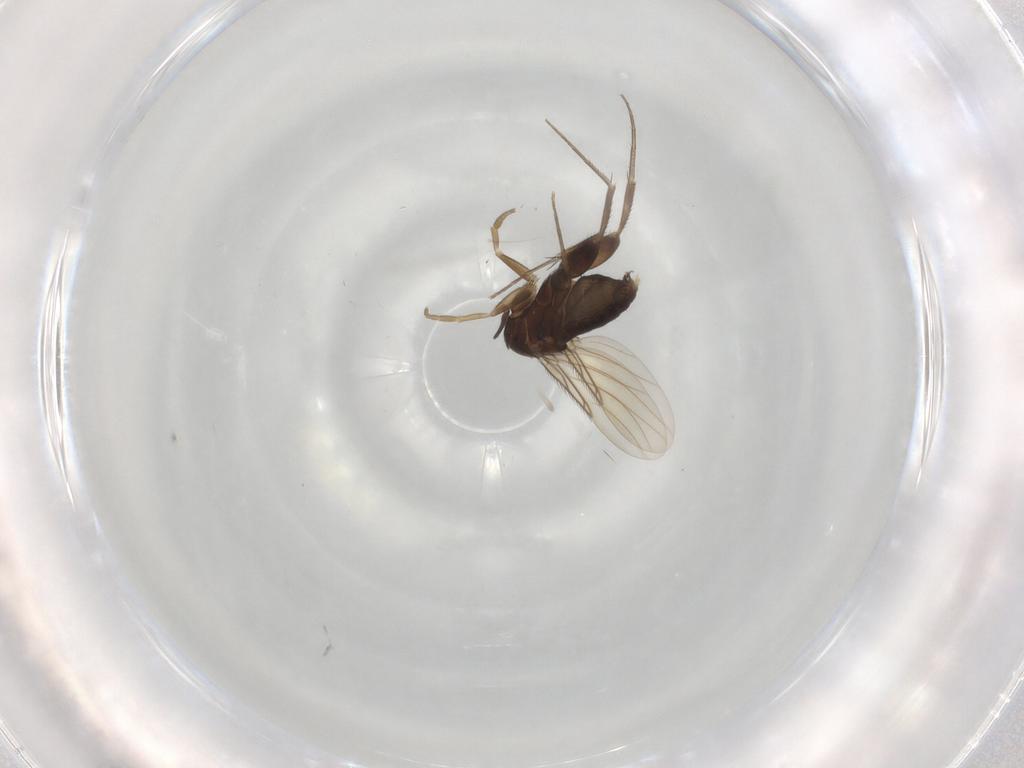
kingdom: Animalia
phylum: Arthropoda
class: Insecta
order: Diptera
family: Phoridae
